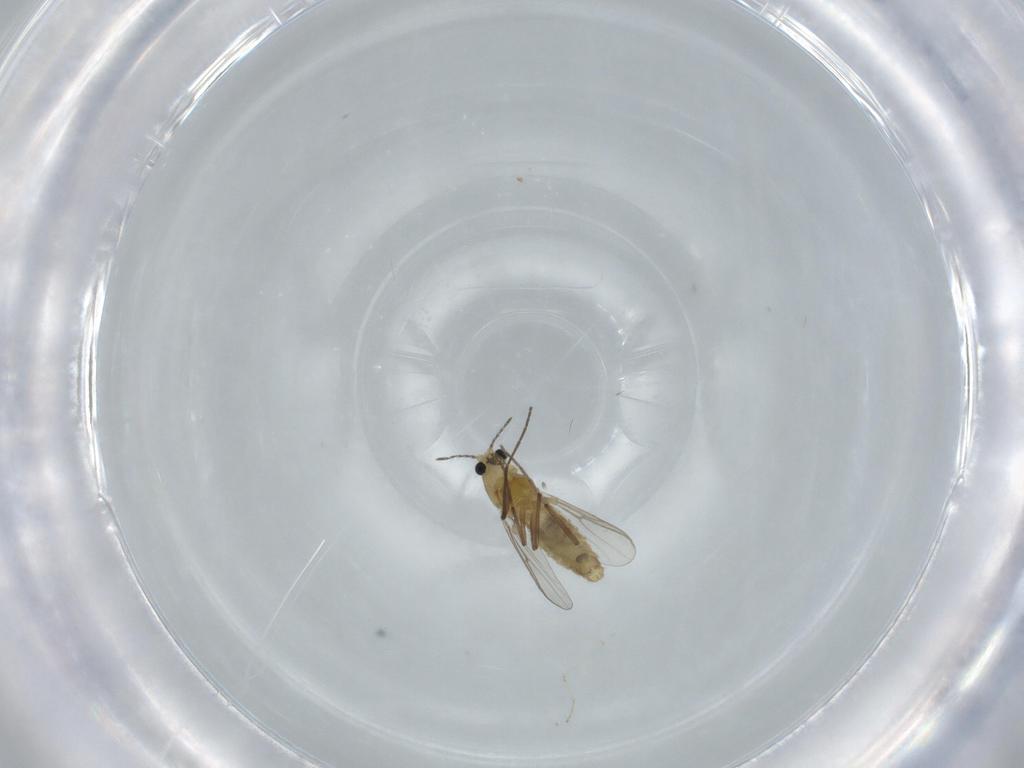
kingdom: Animalia
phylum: Arthropoda
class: Insecta
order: Diptera
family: Chironomidae
